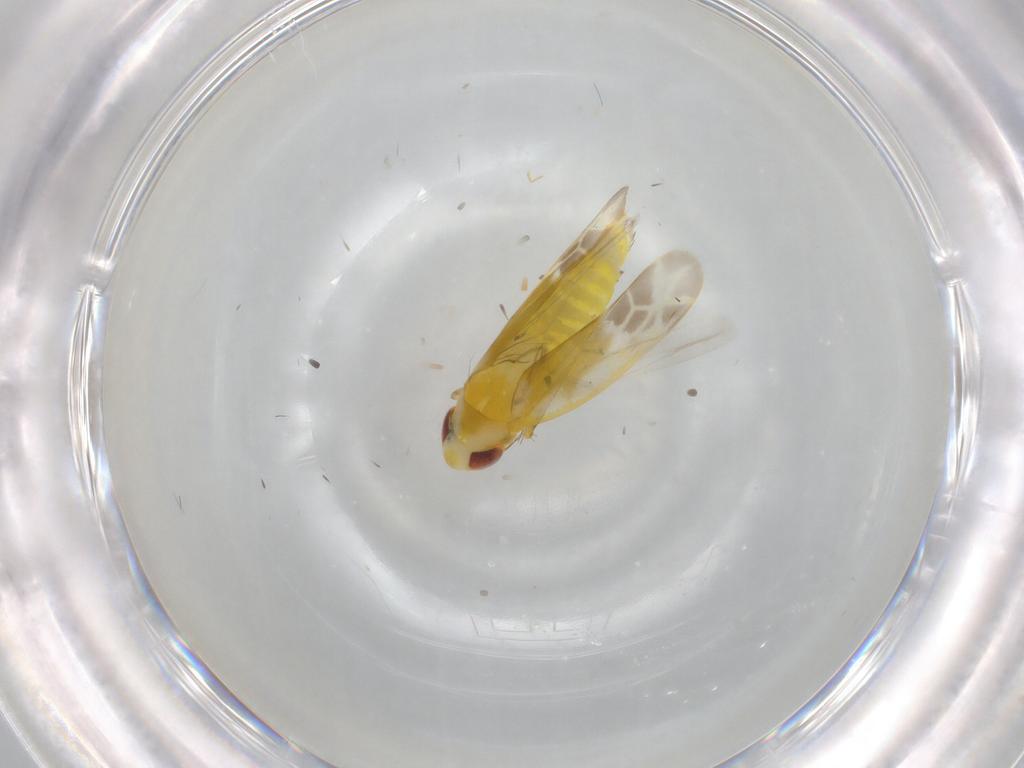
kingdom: Animalia
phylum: Arthropoda
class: Insecta
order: Hemiptera
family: Cicadellidae
